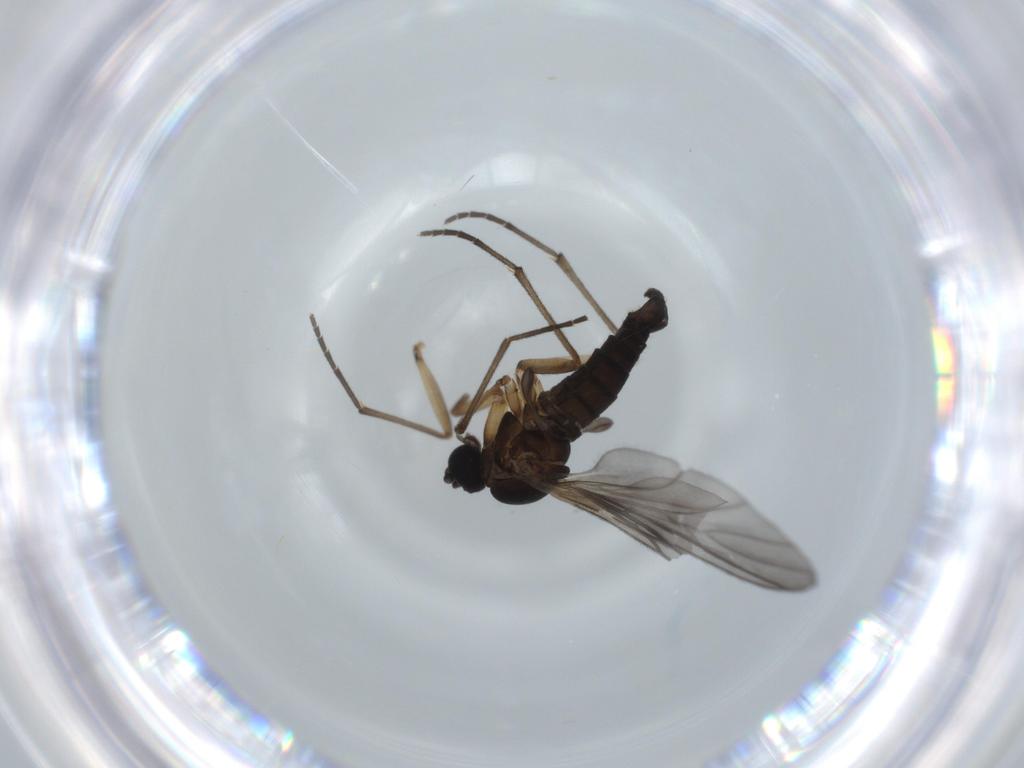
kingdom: Animalia
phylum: Arthropoda
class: Insecta
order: Diptera
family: Sciaridae
